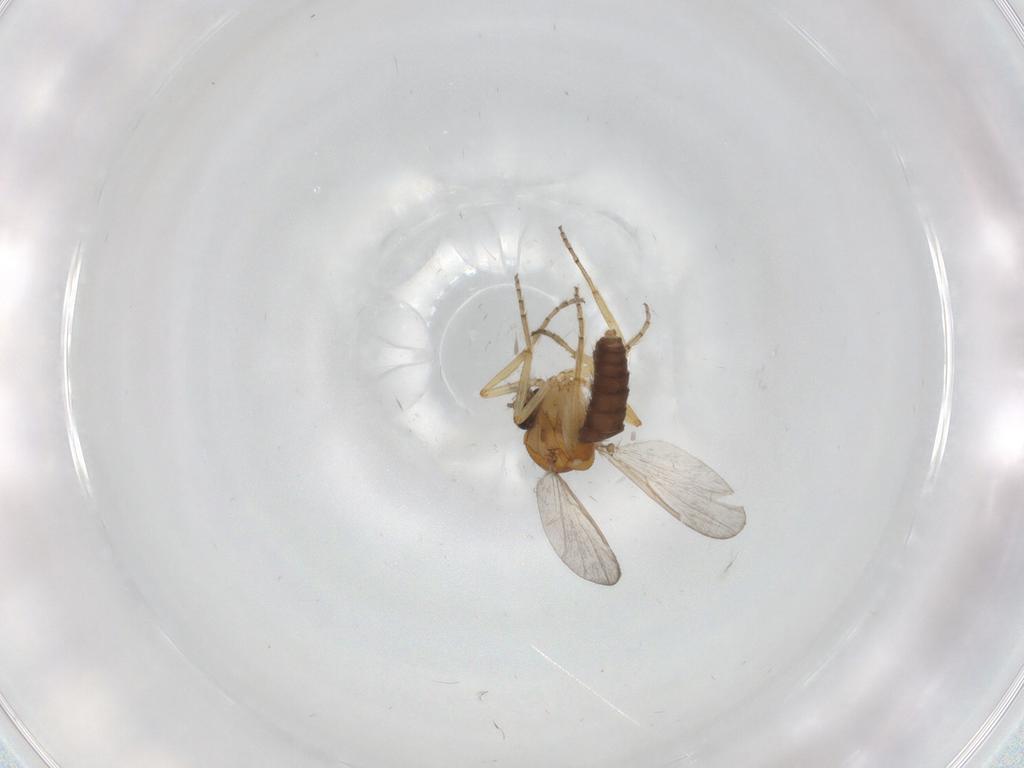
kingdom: Animalia
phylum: Arthropoda
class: Insecta
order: Diptera
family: Ceratopogonidae
